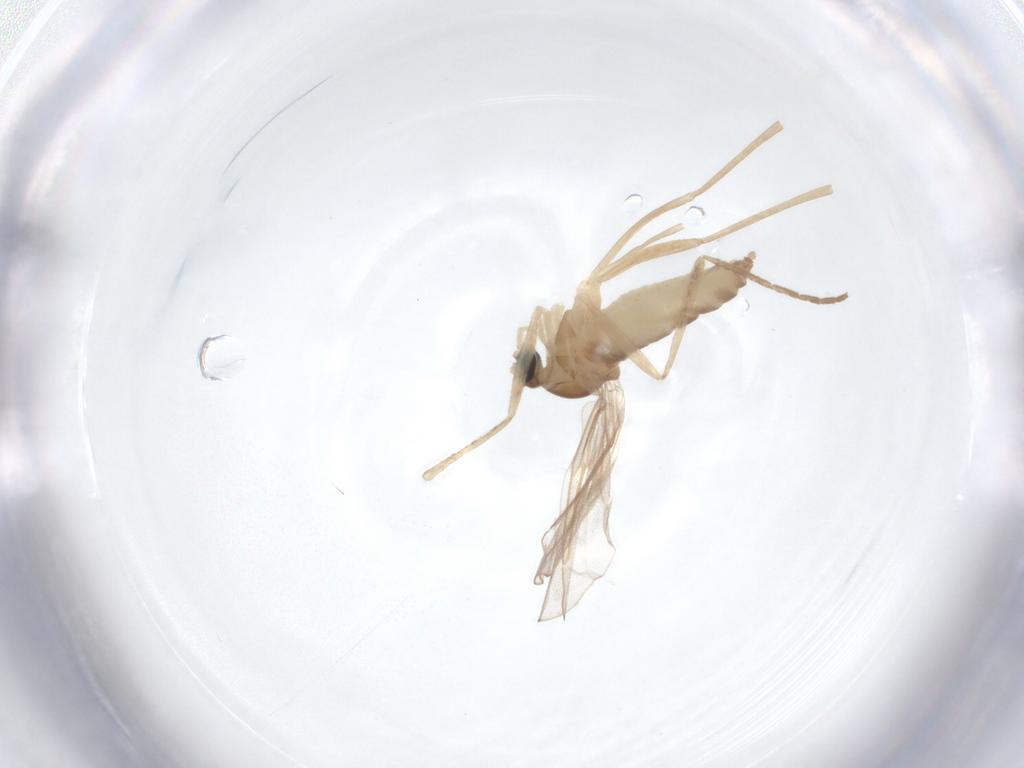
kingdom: Animalia
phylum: Arthropoda
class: Insecta
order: Diptera
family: Cecidomyiidae
